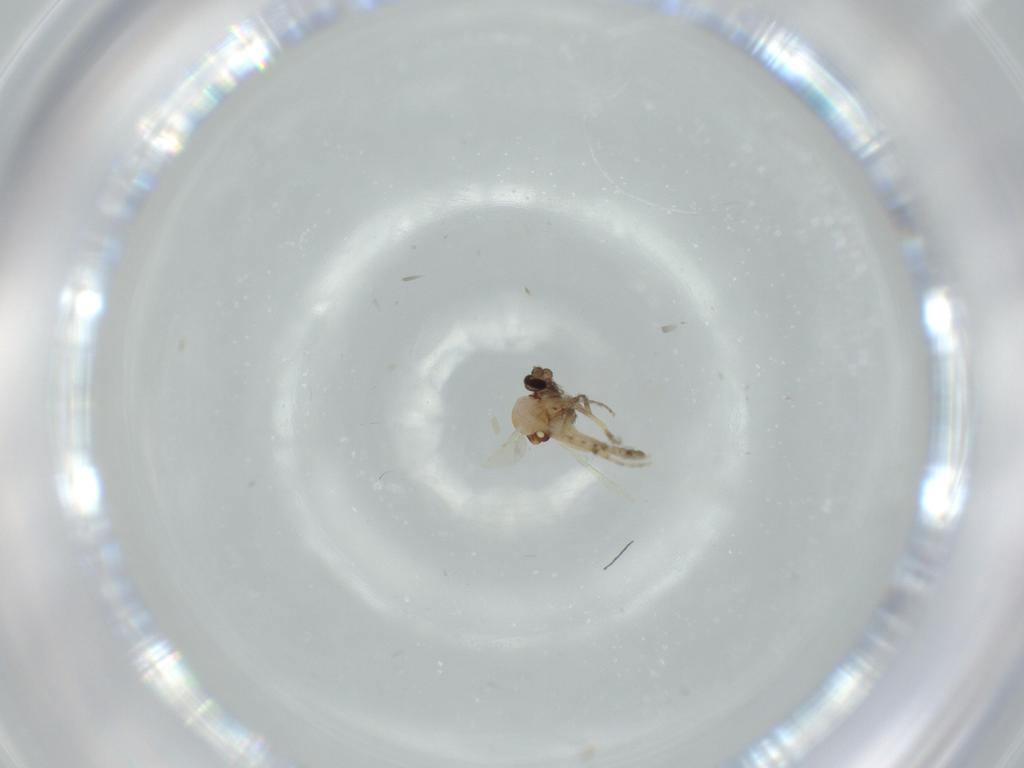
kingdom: Animalia
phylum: Arthropoda
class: Insecta
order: Diptera
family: Ceratopogonidae
